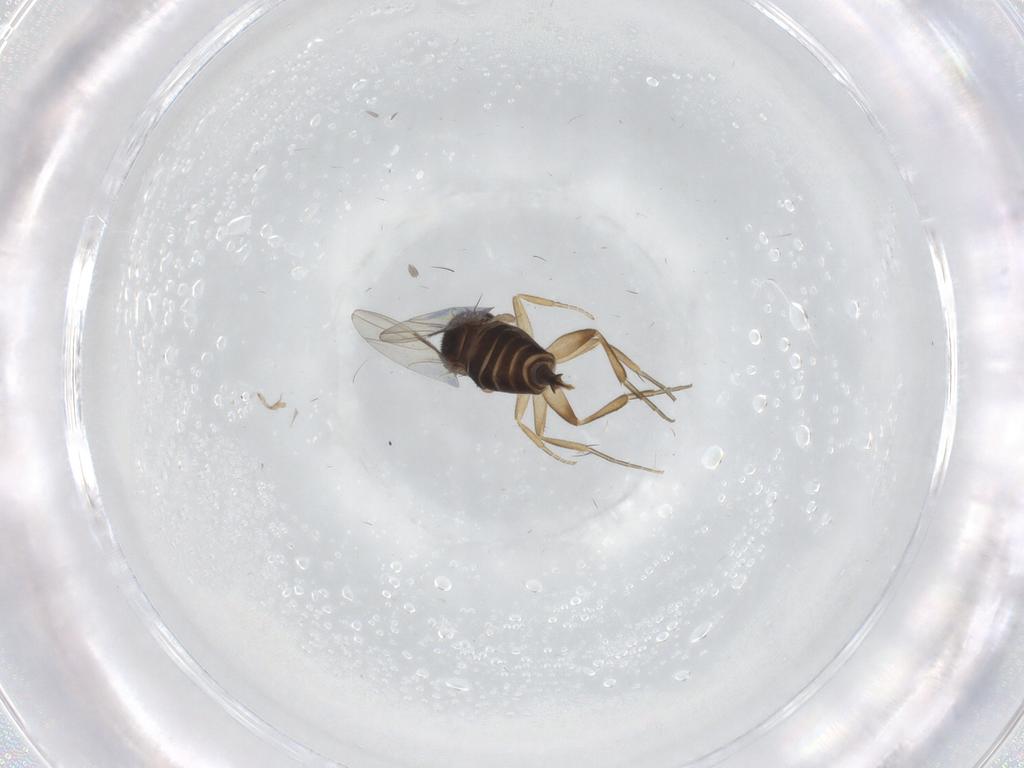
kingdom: Animalia
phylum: Arthropoda
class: Insecta
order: Diptera
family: Phoridae
